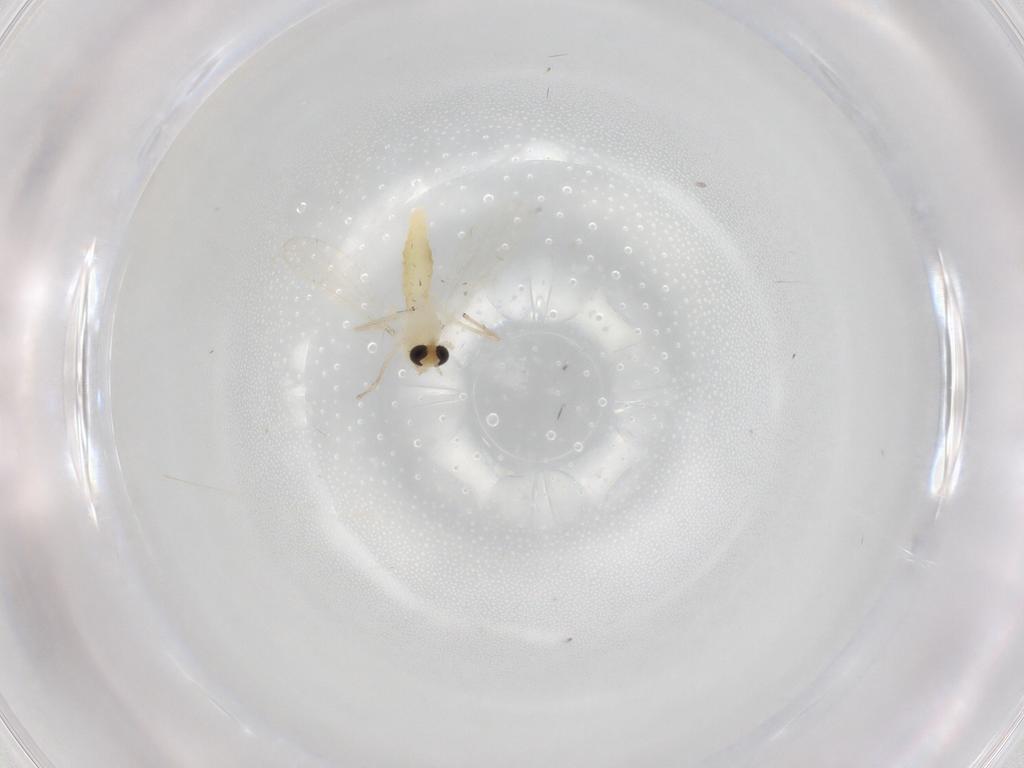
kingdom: Animalia
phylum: Arthropoda
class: Insecta
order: Diptera
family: Chironomidae
